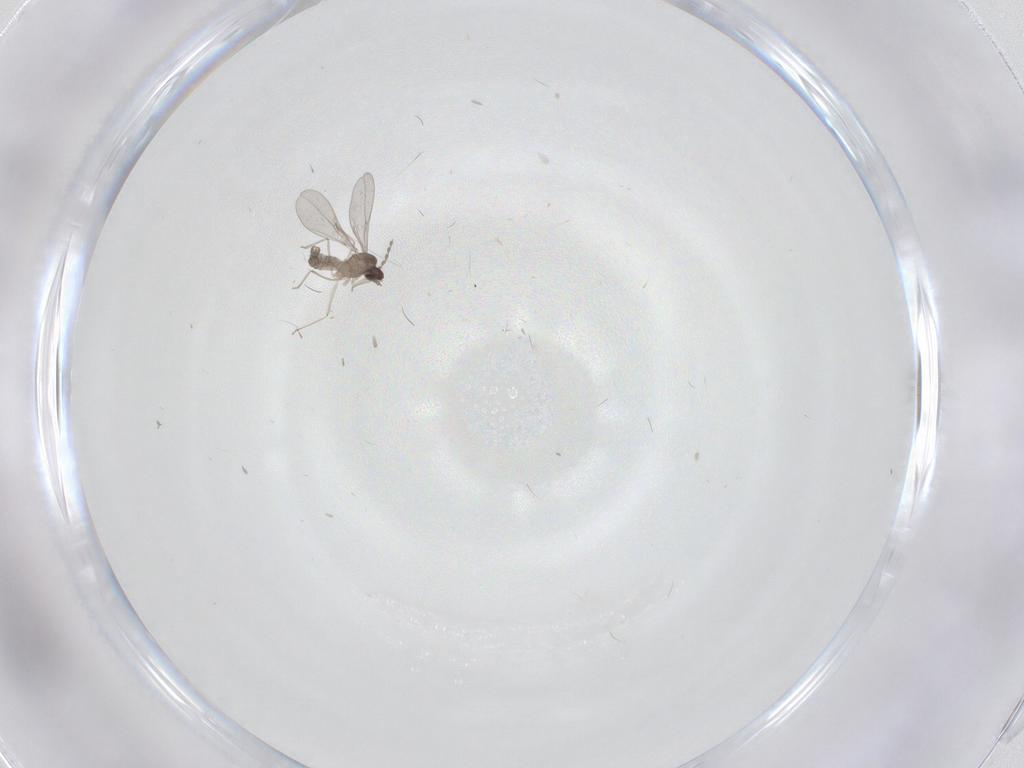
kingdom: Animalia
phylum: Arthropoda
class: Insecta
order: Diptera
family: Cecidomyiidae
